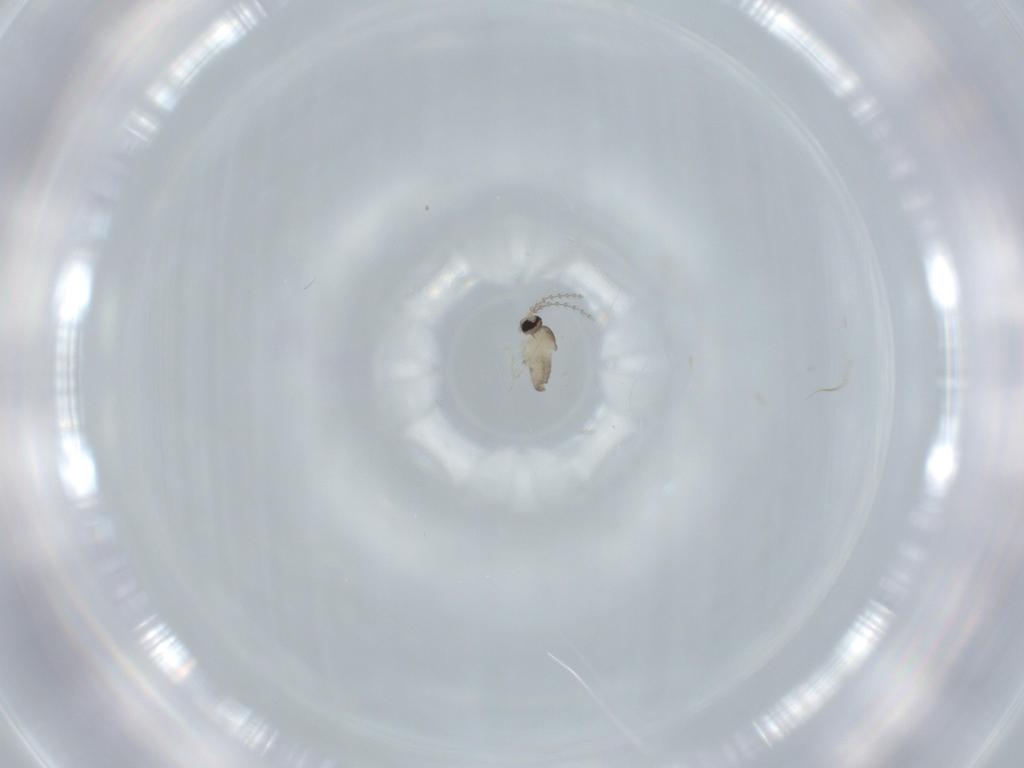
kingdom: Animalia
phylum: Arthropoda
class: Insecta
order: Diptera
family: Cecidomyiidae
